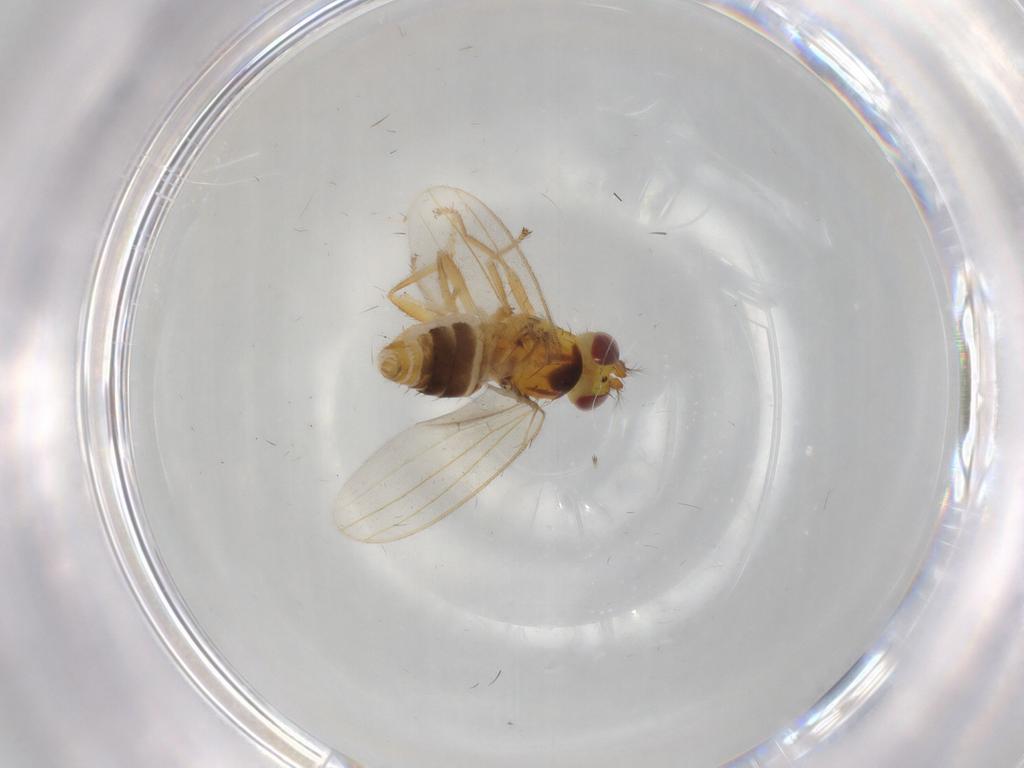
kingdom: Animalia
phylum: Arthropoda
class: Insecta
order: Diptera
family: Periscelididae
